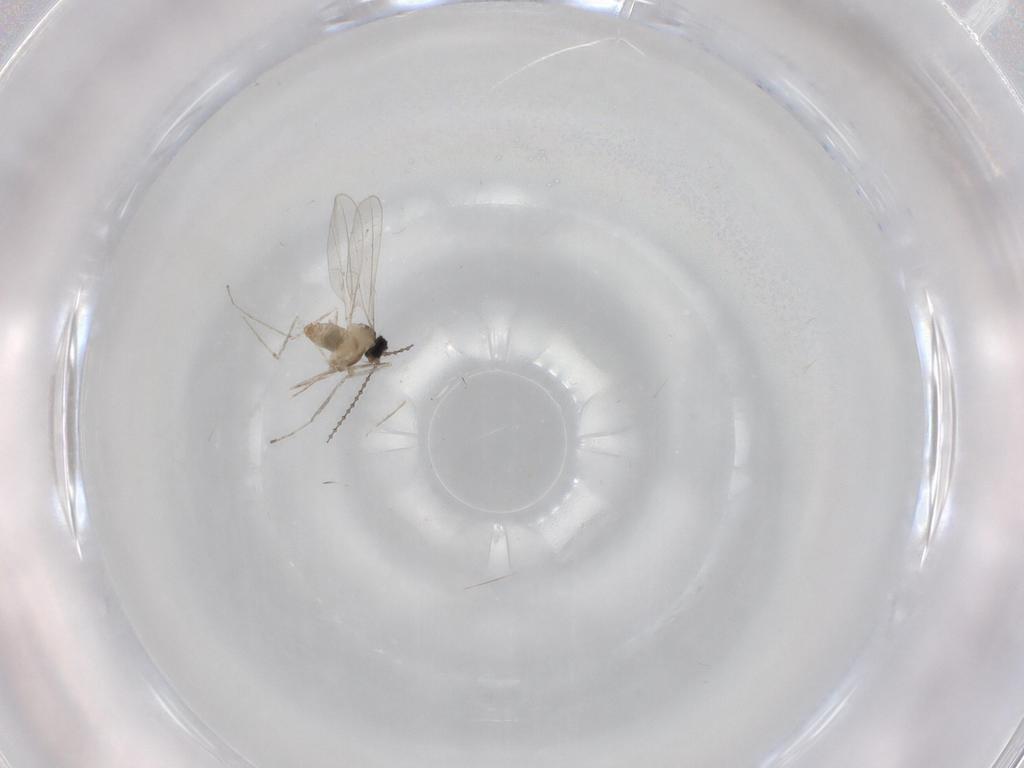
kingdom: Animalia
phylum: Arthropoda
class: Insecta
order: Diptera
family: Cecidomyiidae
